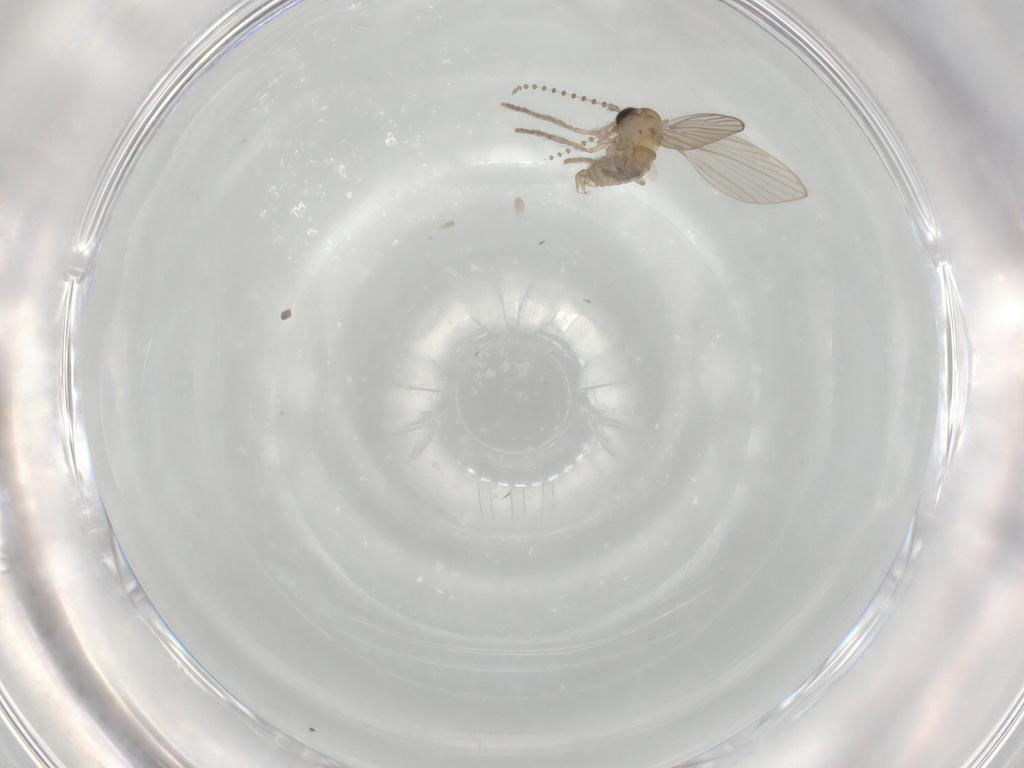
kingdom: Animalia
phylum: Arthropoda
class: Insecta
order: Diptera
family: Psychodidae
